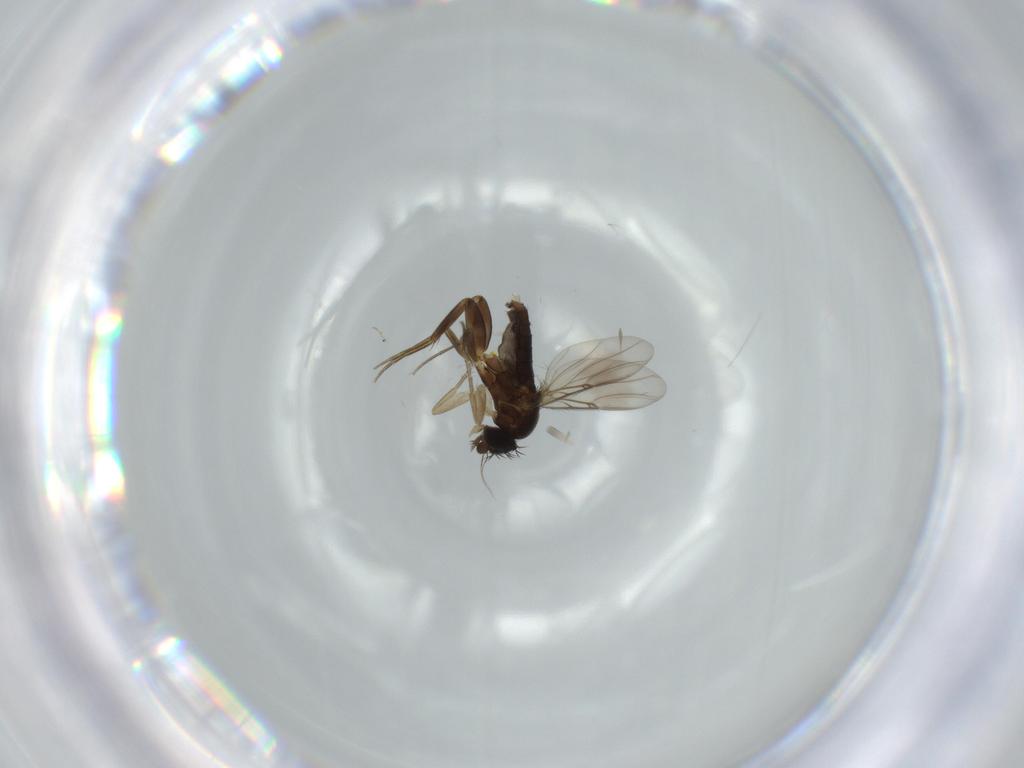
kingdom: Animalia
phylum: Arthropoda
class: Insecta
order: Diptera
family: Phoridae
